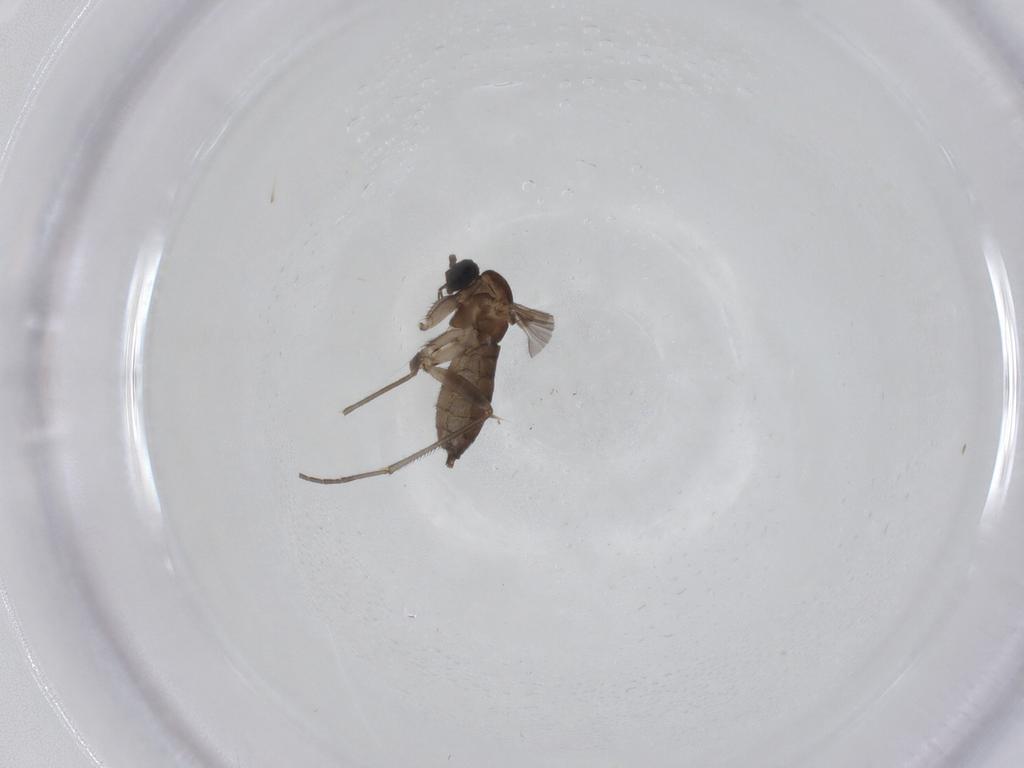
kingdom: Animalia
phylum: Arthropoda
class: Insecta
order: Diptera
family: Sciaridae
